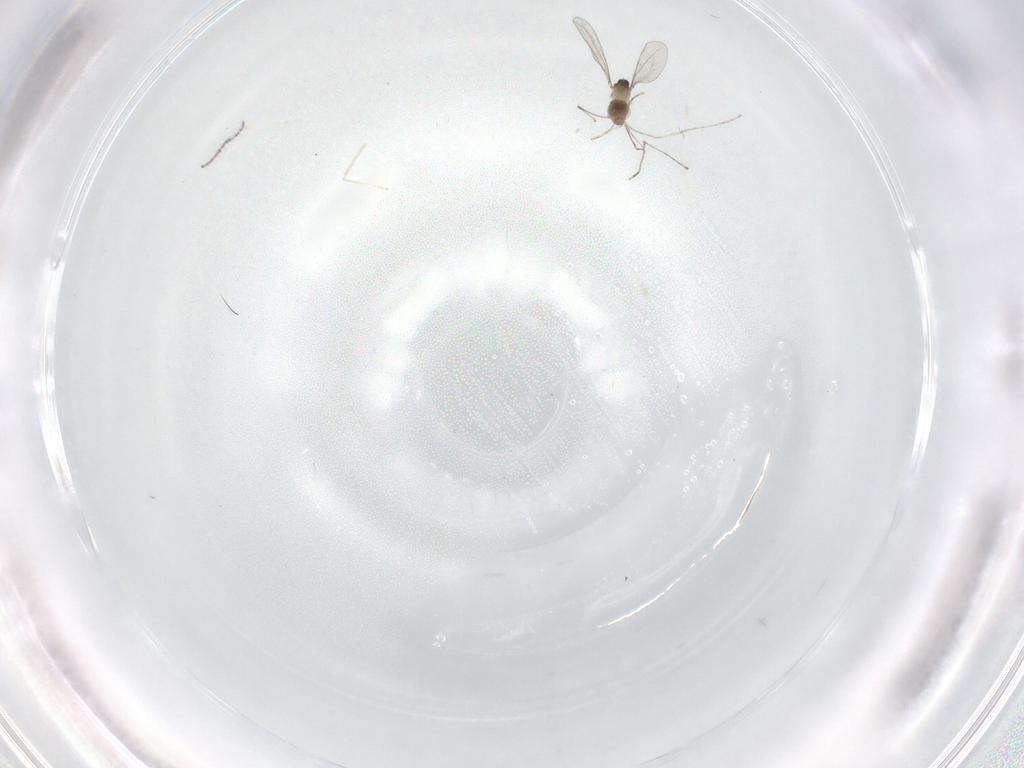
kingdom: Animalia
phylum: Arthropoda
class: Insecta
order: Diptera
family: Cecidomyiidae
